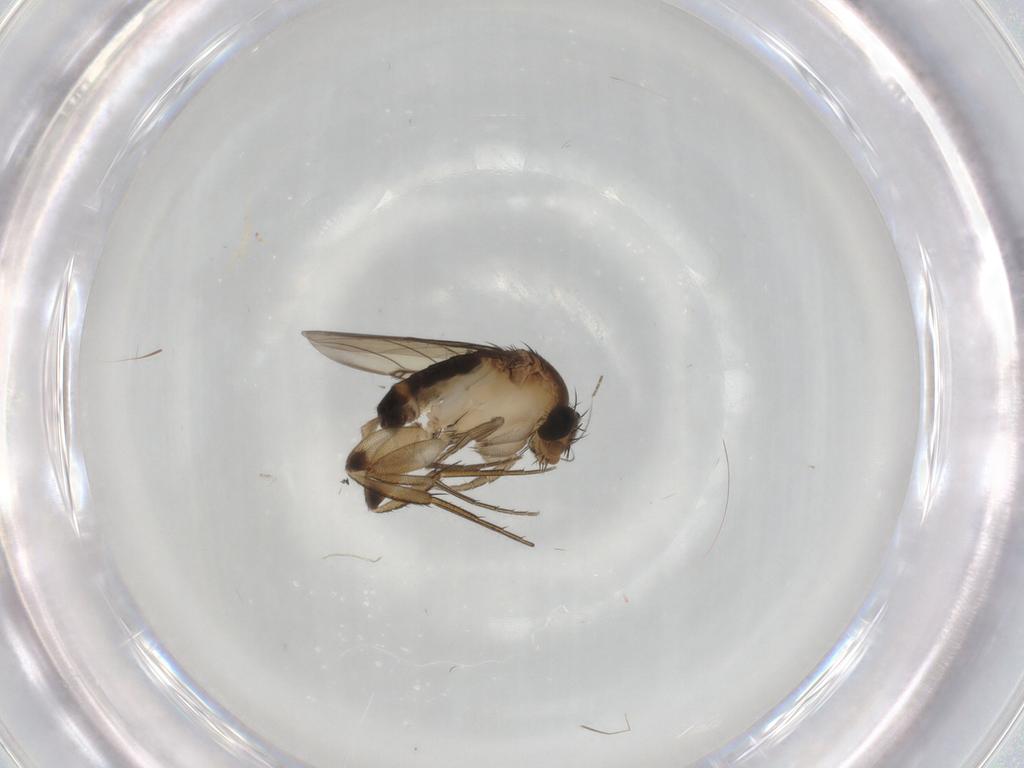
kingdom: Animalia
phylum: Arthropoda
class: Insecta
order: Diptera
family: Phoridae
